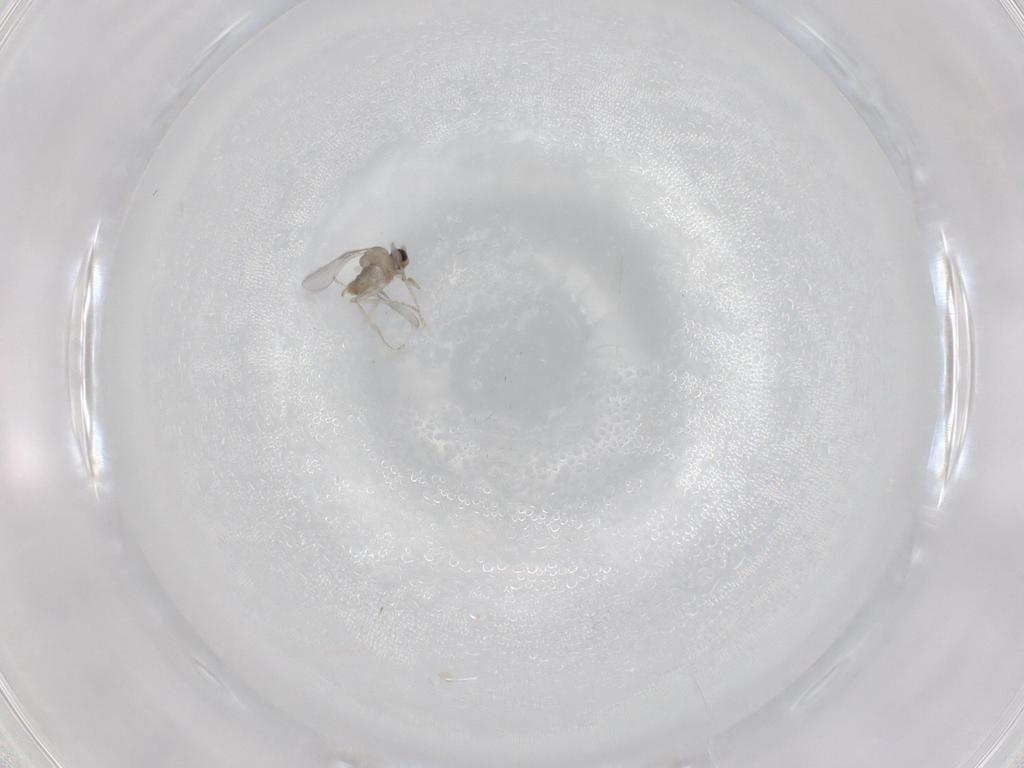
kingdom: Animalia
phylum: Arthropoda
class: Insecta
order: Diptera
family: Cecidomyiidae
